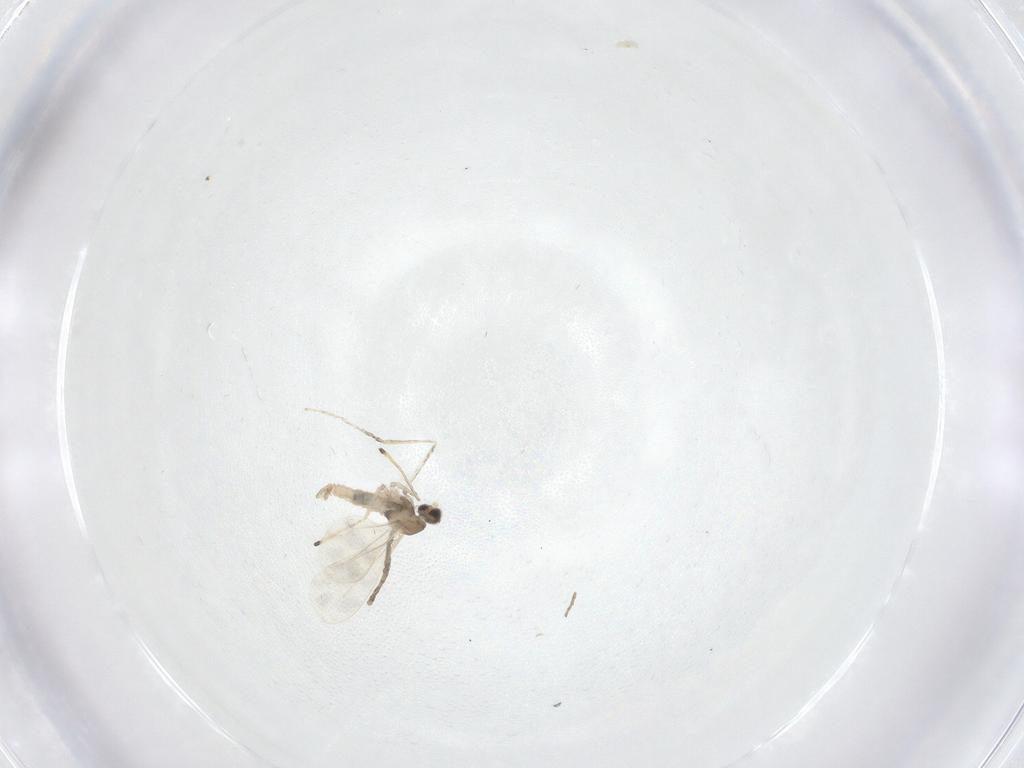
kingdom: Animalia
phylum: Arthropoda
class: Insecta
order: Diptera
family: Cecidomyiidae
